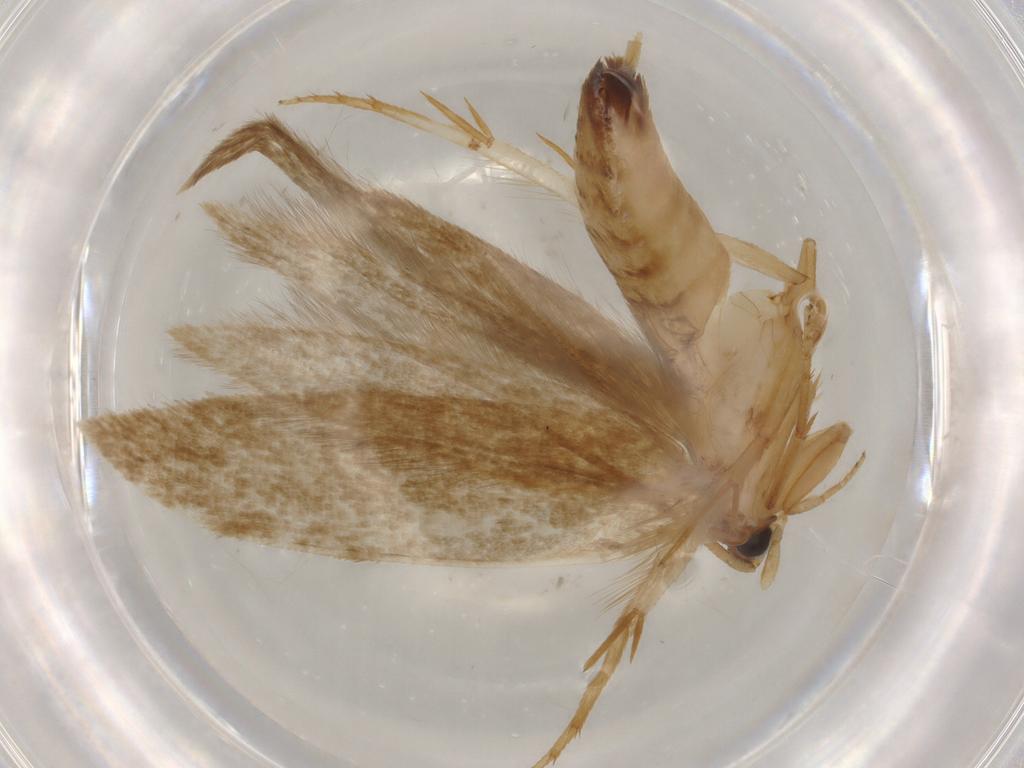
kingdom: Animalia
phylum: Arthropoda
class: Insecta
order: Lepidoptera
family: Tineidae
